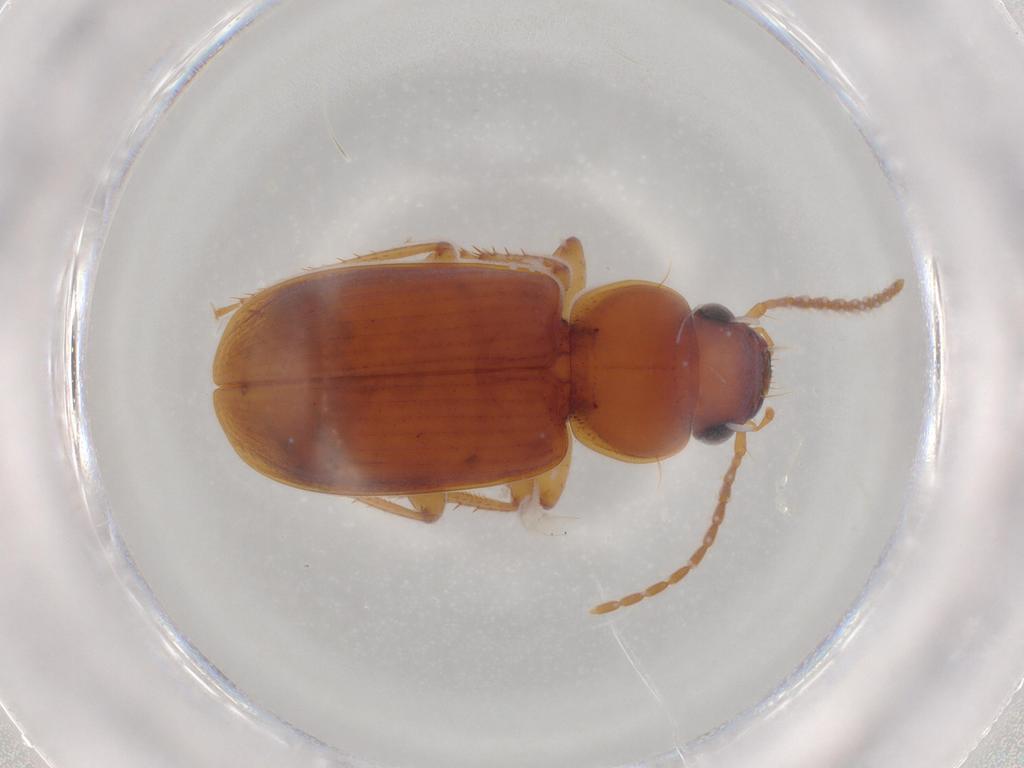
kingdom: Animalia
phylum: Arthropoda
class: Insecta
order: Coleoptera
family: Carabidae
